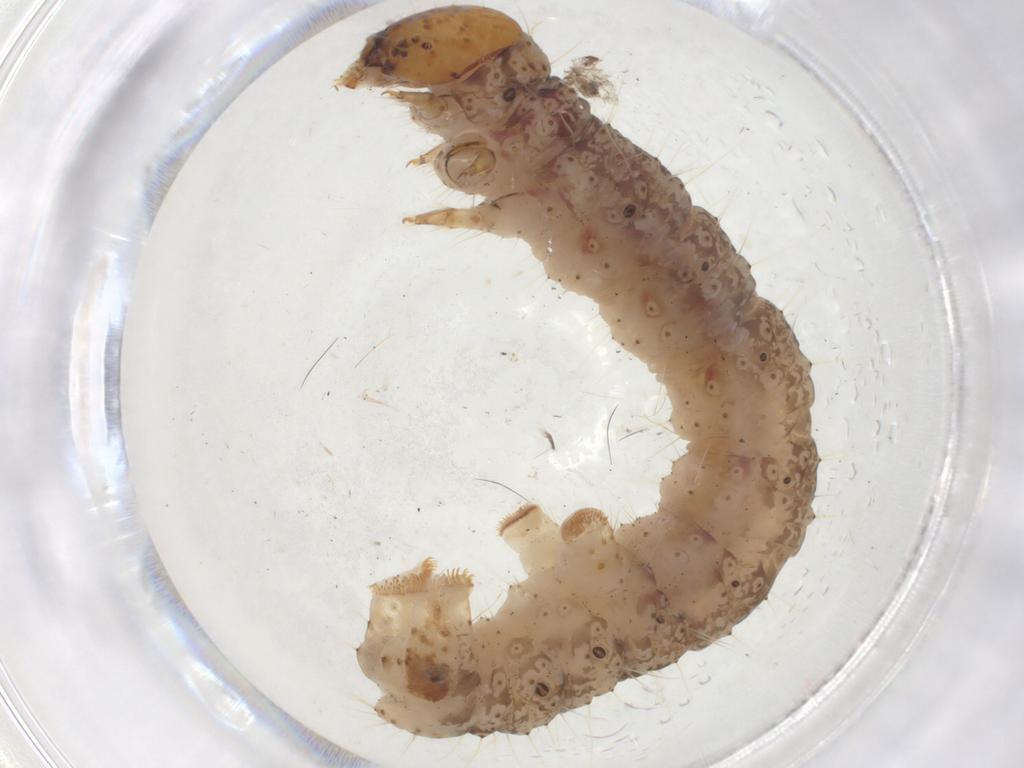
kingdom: Animalia
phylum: Arthropoda
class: Insecta
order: Lepidoptera
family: Geometridae
